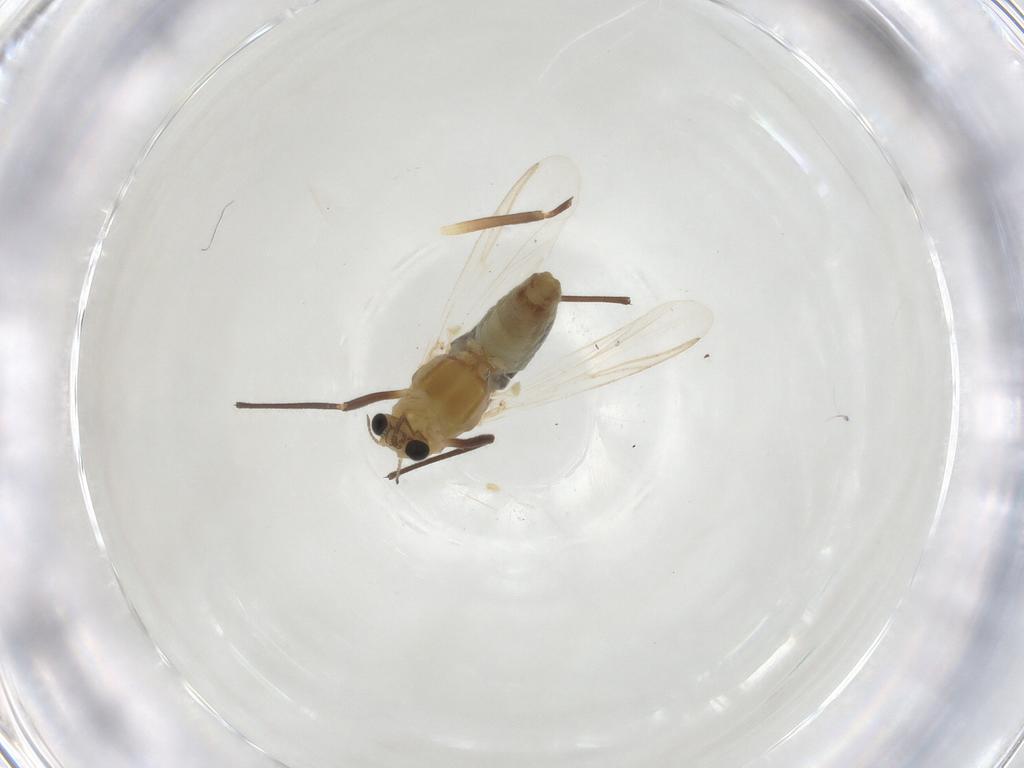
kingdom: Animalia
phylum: Arthropoda
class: Insecta
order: Diptera
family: Chironomidae
